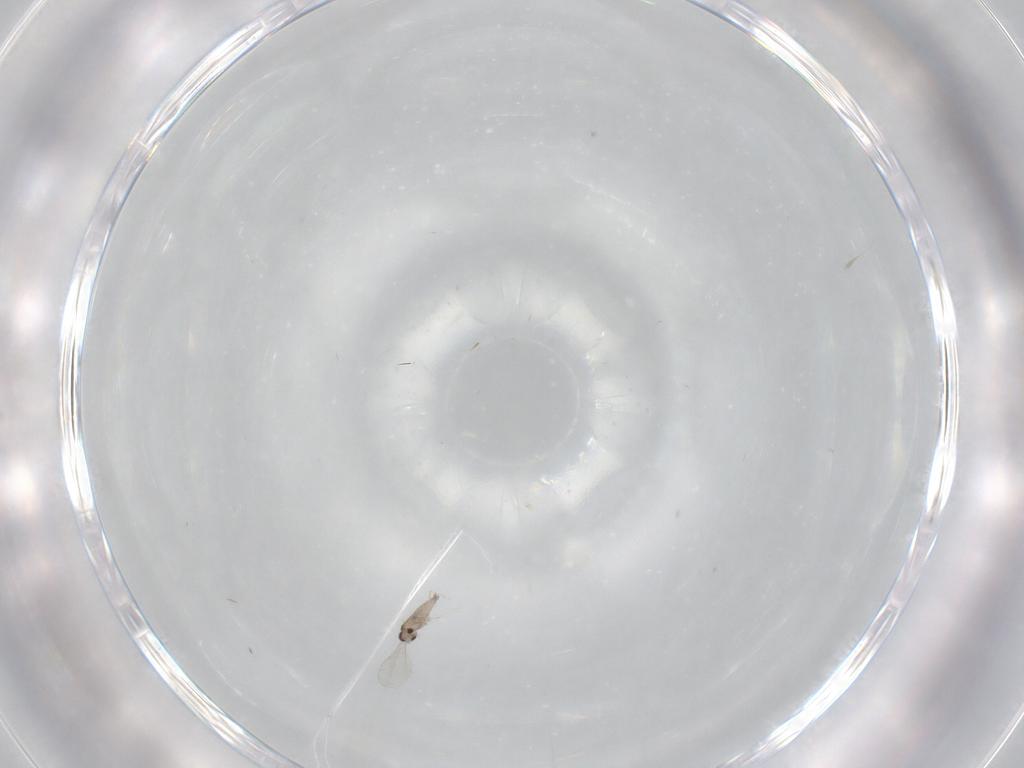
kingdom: Animalia
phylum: Arthropoda
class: Insecta
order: Diptera
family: Cecidomyiidae
